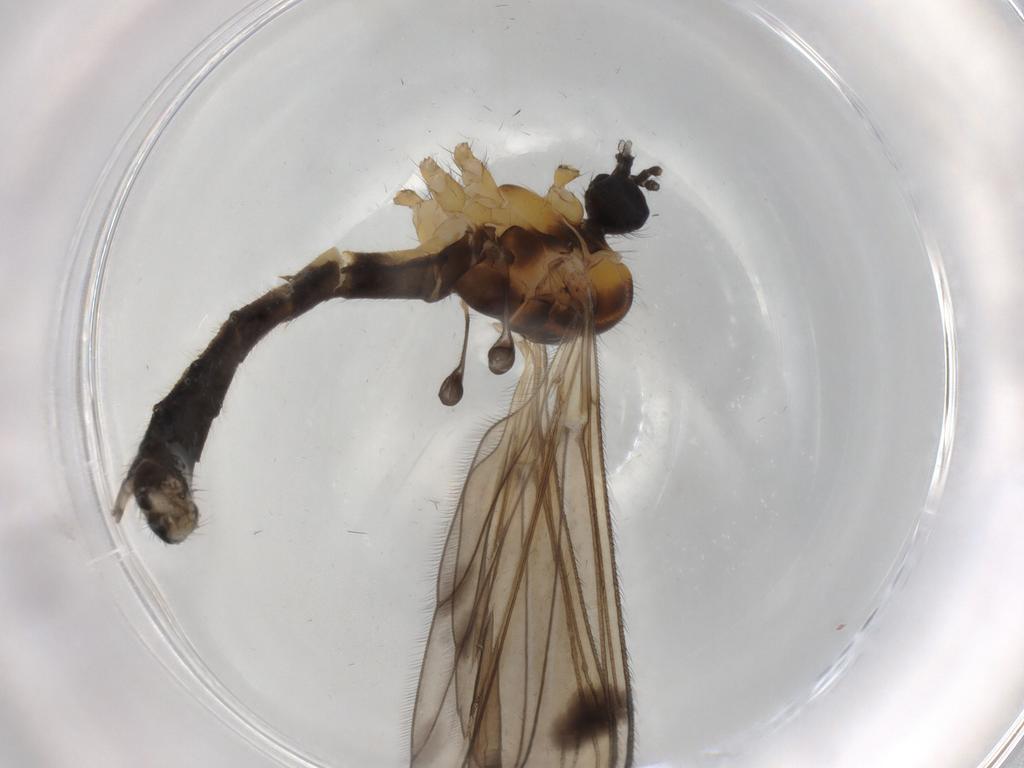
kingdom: Animalia
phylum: Arthropoda
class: Insecta
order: Diptera
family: Limoniidae
